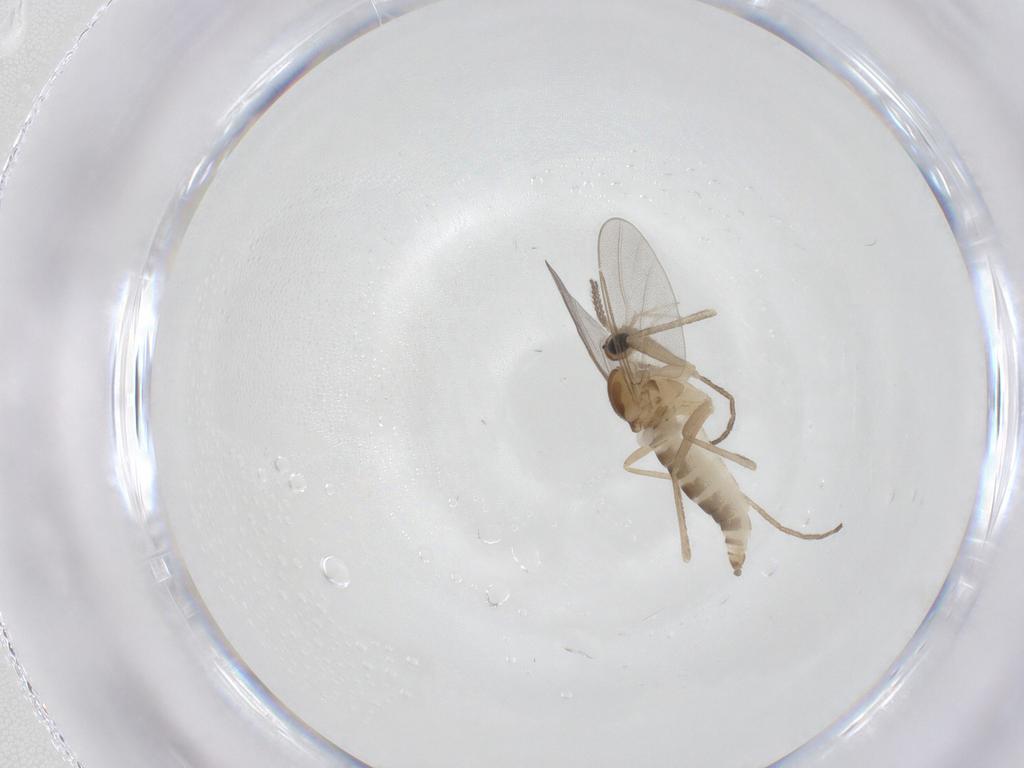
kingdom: Animalia
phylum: Arthropoda
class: Insecta
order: Diptera
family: Cecidomyiidae
